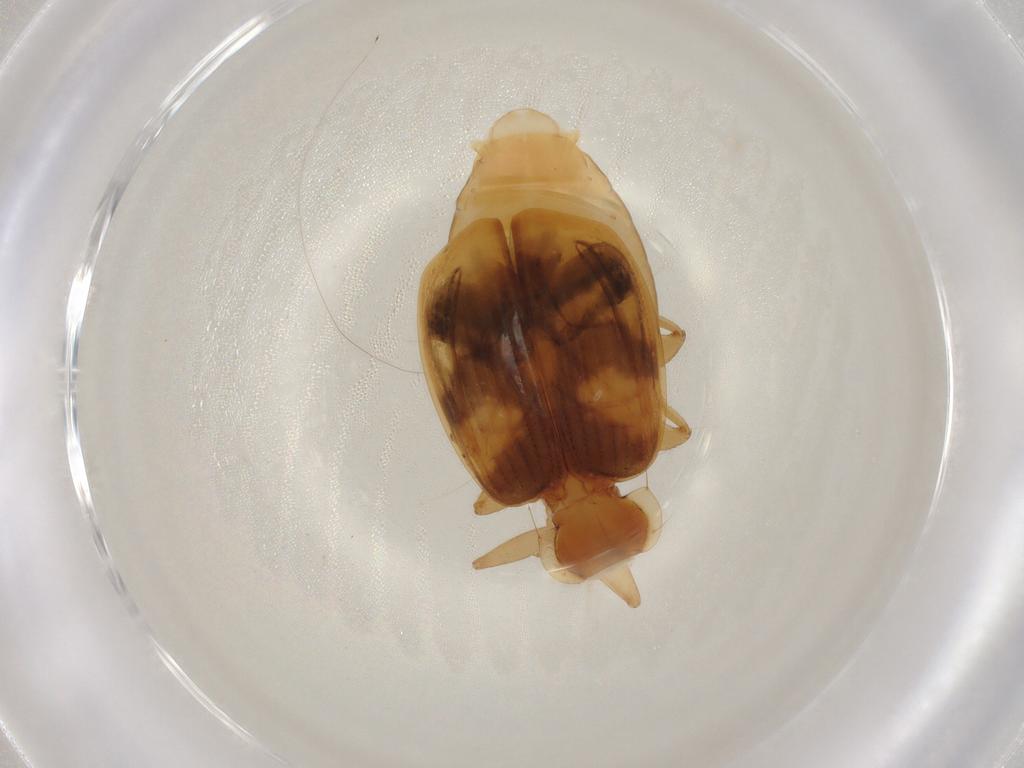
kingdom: Animalia
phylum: Arthropoda
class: Insecta
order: Coleoptera
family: Carabidae
